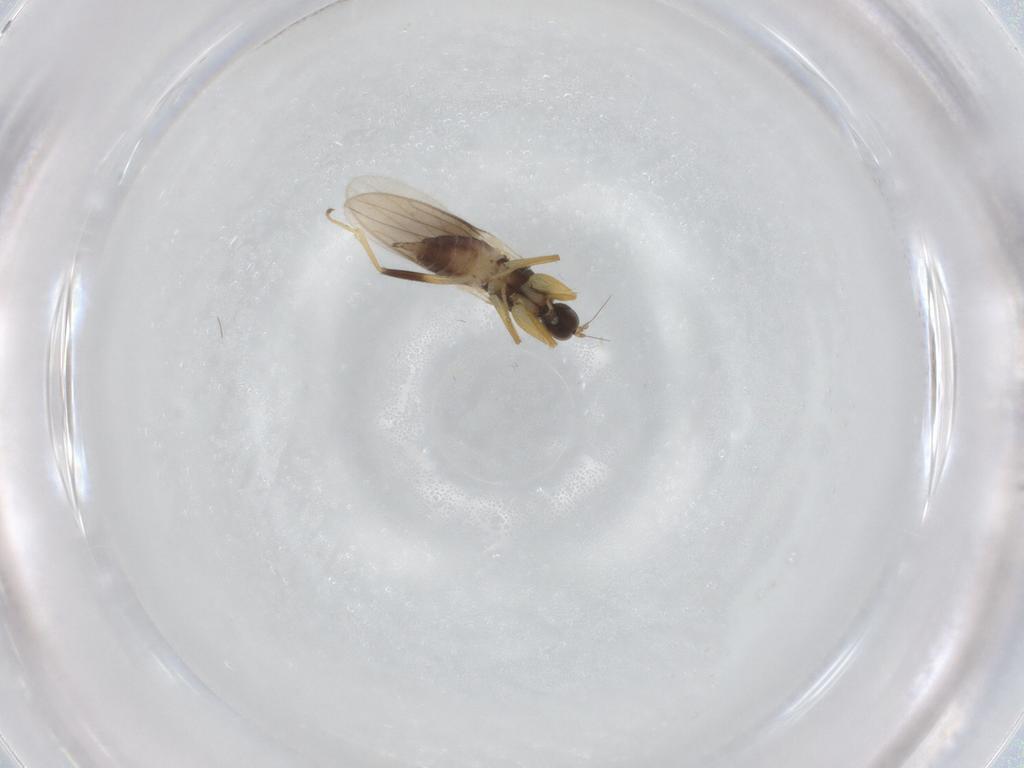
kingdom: Animalia
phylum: Arthropoda
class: Insecta
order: Diptera
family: Hybotidae
